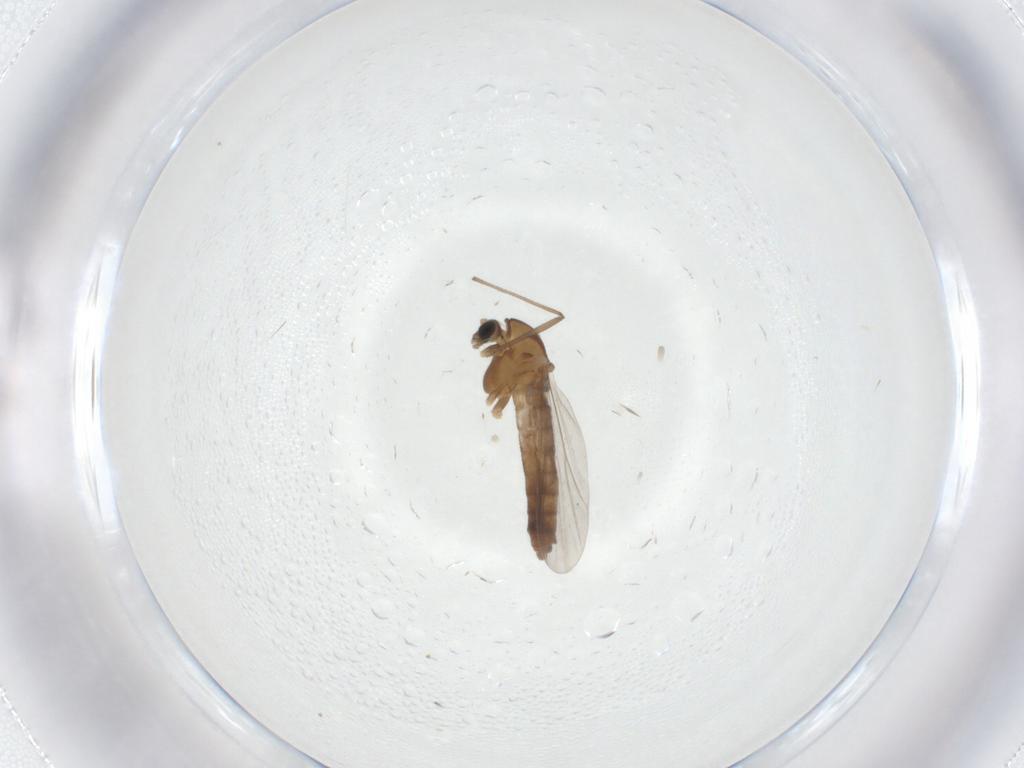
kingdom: Animalia
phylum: Arthropoda
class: Insecta
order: Diptera
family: Chironomidae
